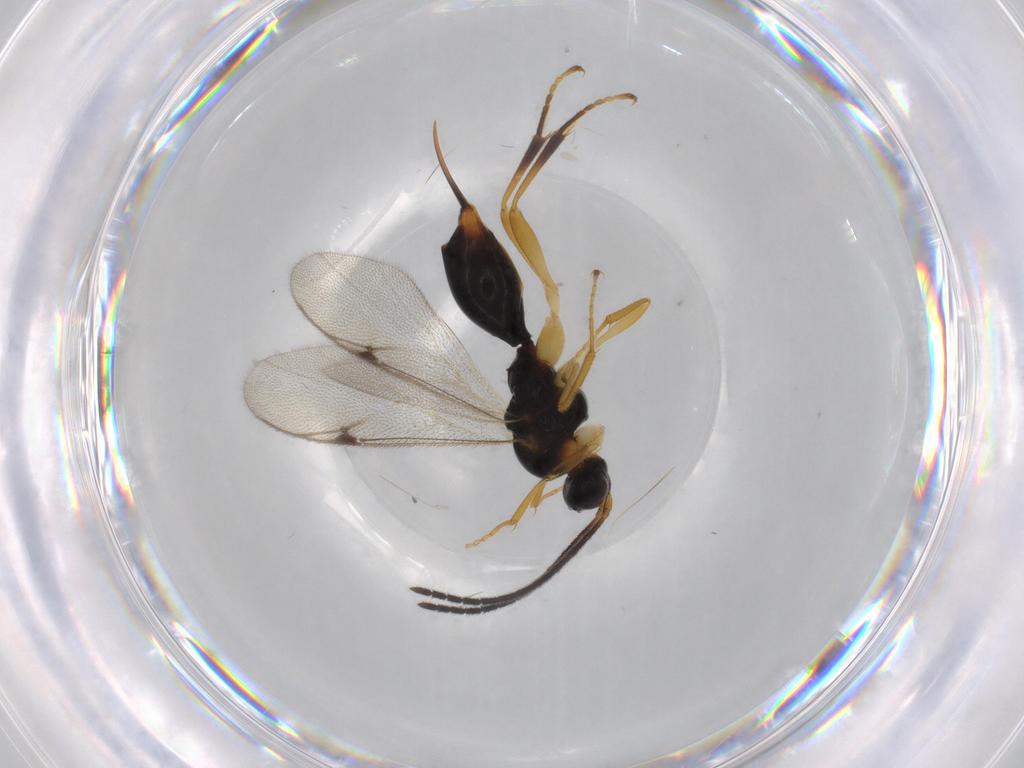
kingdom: Animalia
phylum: Arthropoda
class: Insecta
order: Hymenoptera
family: Proctotrupidae
